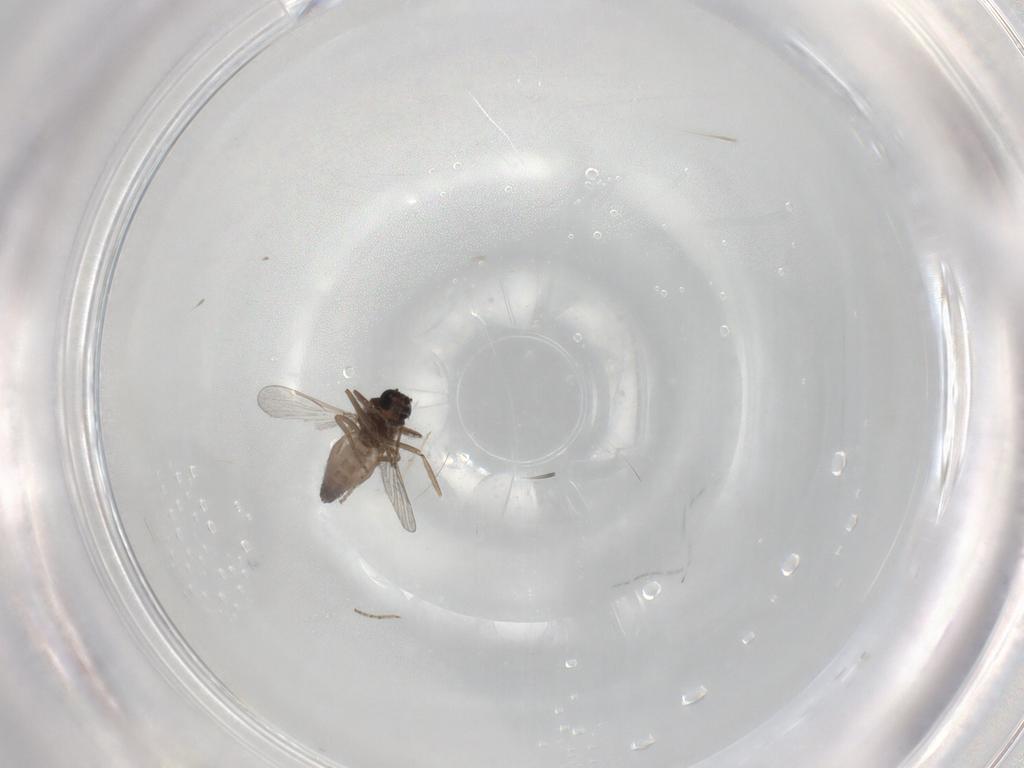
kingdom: Animalia
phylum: Arthropoda
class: Insecta
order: Diptera
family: Ceratopogonidae
